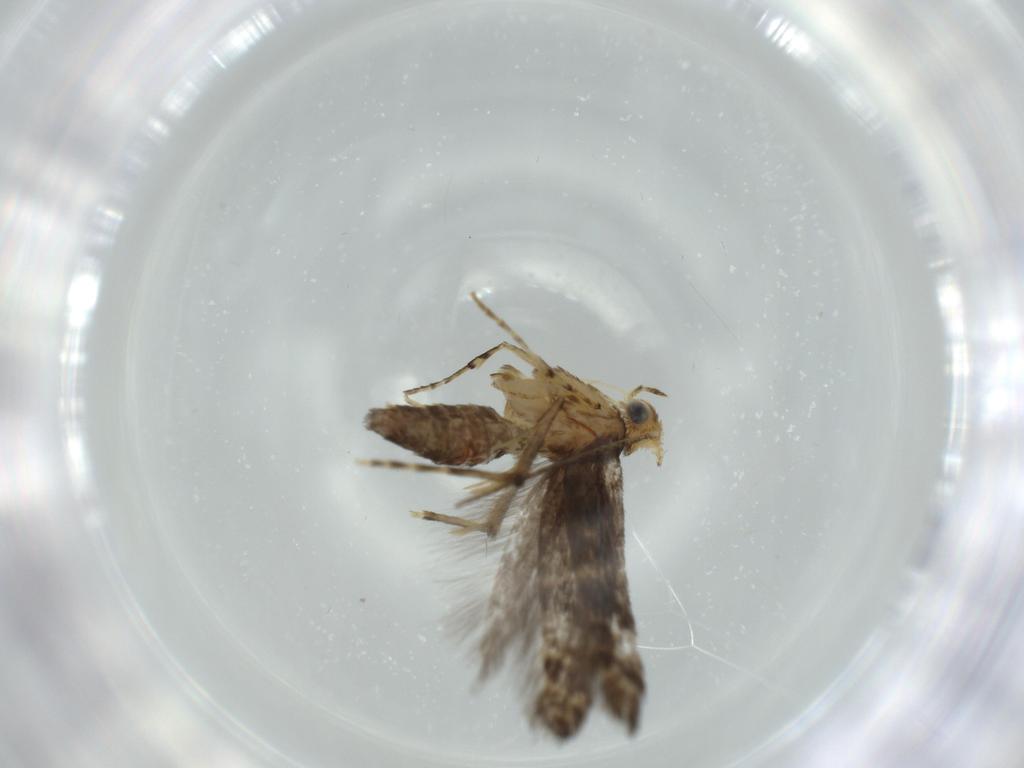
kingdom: Animalia
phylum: Arthropoda
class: Insecta
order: Lepidoptera
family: Argyresthiidae
